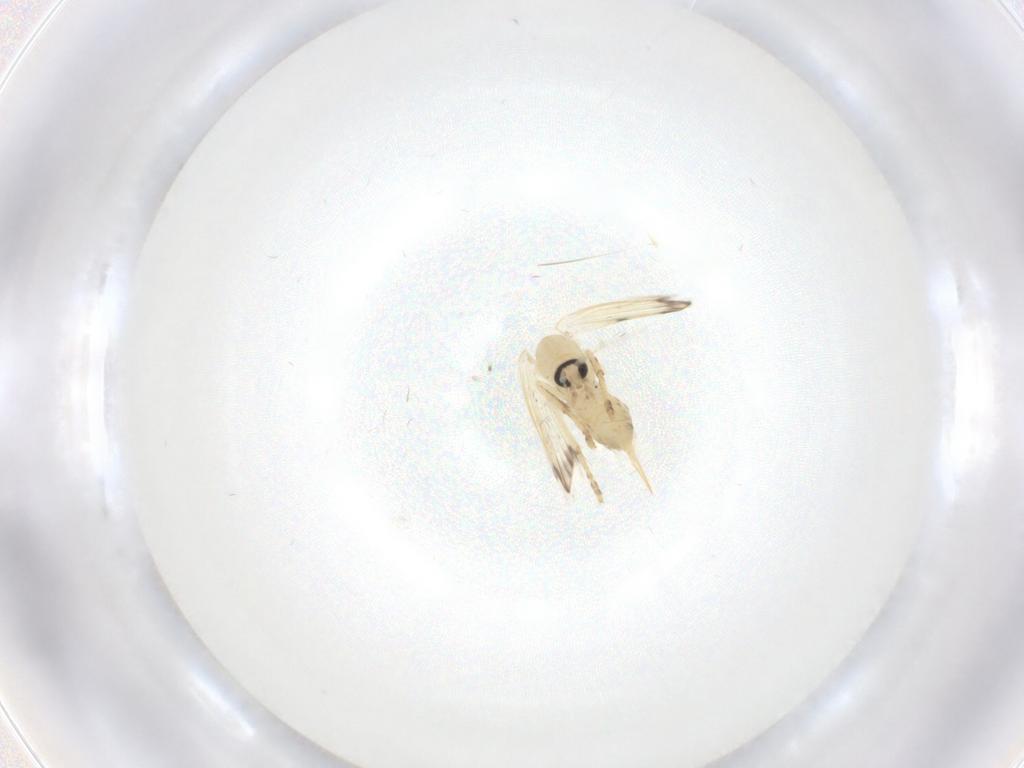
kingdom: Animalia
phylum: Arthropoda
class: Insecta
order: Diptera
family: Chironomidae
